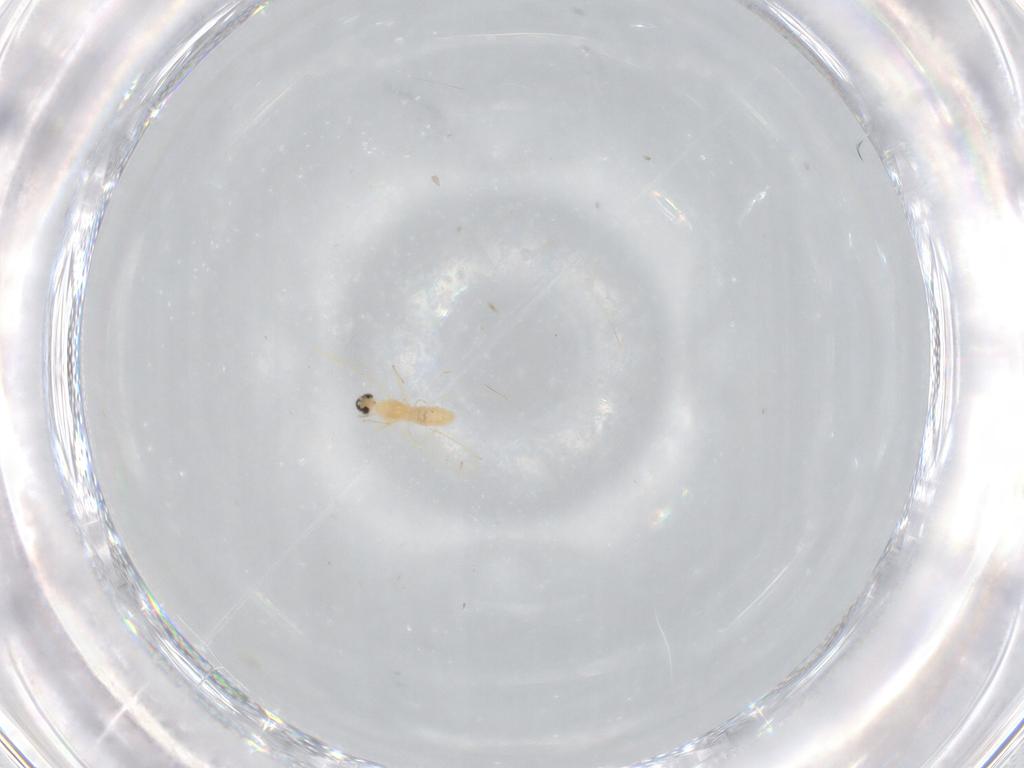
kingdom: Animalia
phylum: Arthropoda
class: Insecta
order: Diptera
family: Cecidomyiidae
